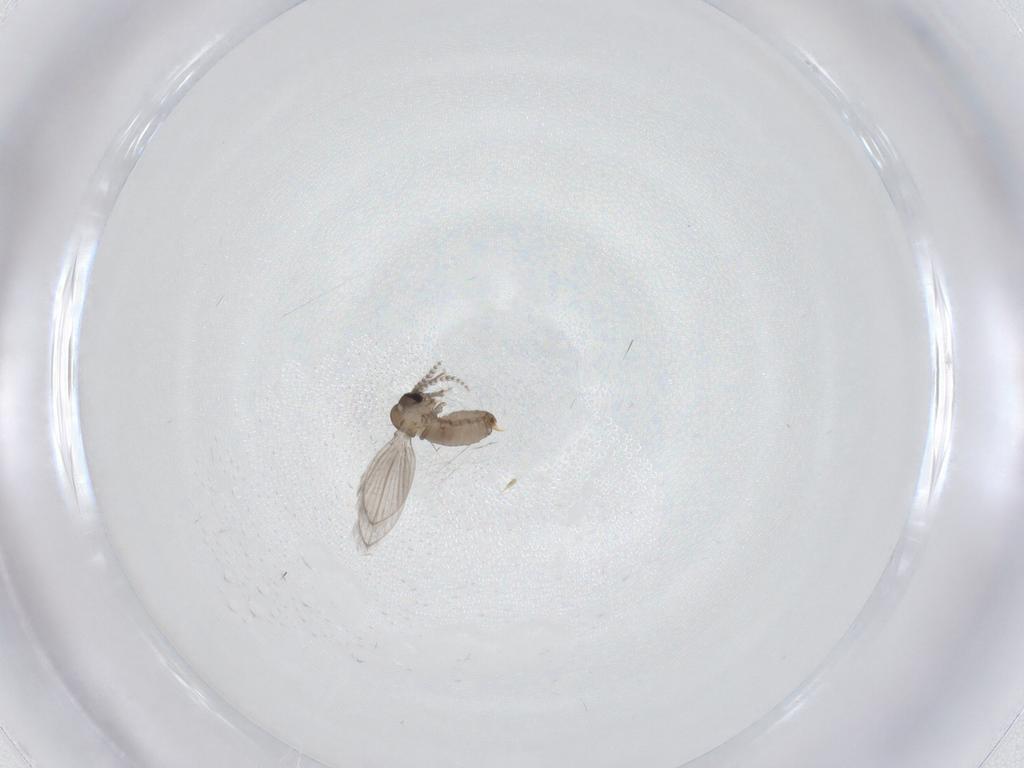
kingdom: Animalia
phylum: Arthropoda
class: Insecta
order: Diptera
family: Psychodidae
